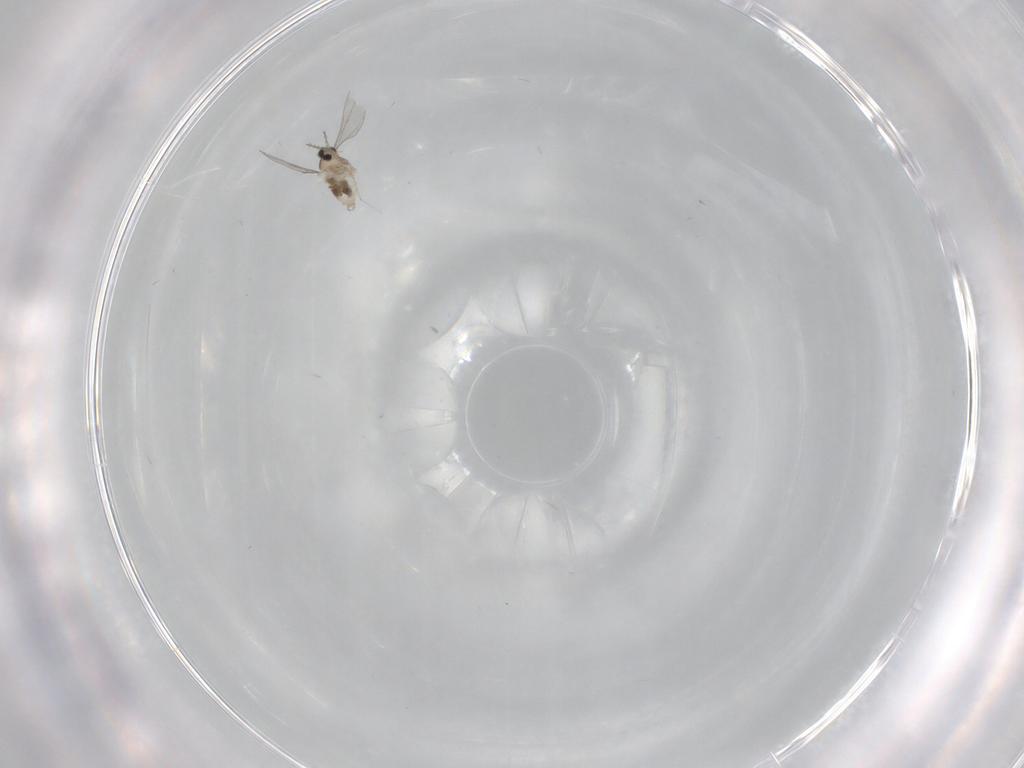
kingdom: Animalia
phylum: Arthropoda
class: Insecta
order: Diptera
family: Cecidomyiidae
